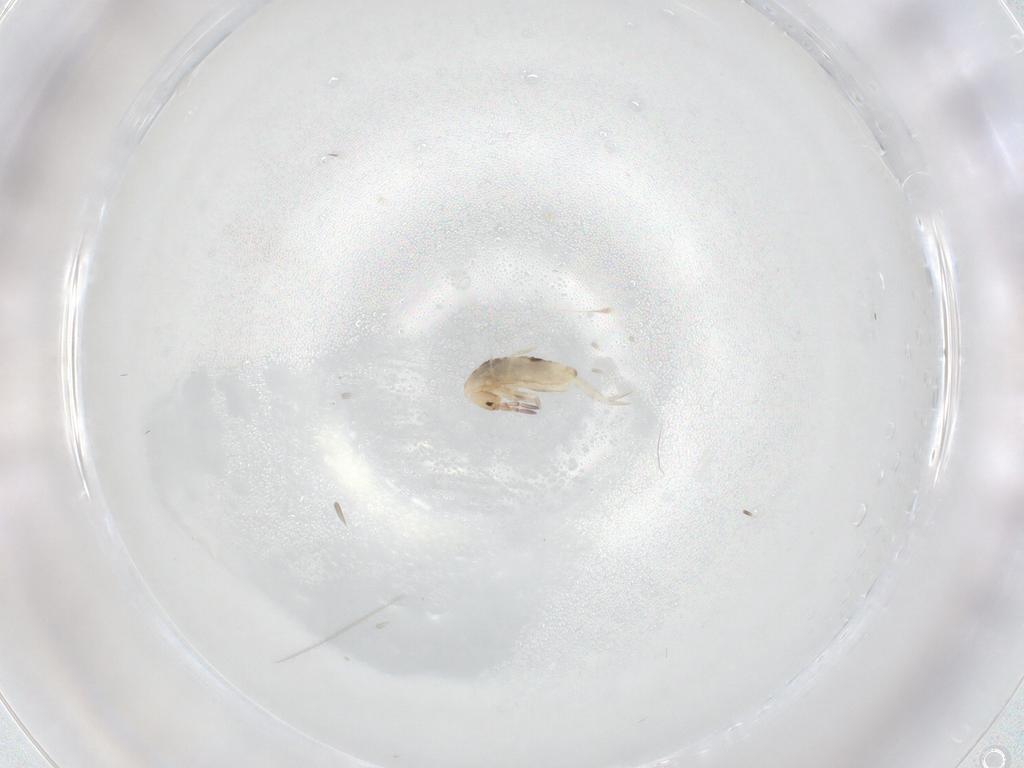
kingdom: Animalia
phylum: Arthropoda
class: Collembola
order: Entomobryomorpha
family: Entomobryidae
